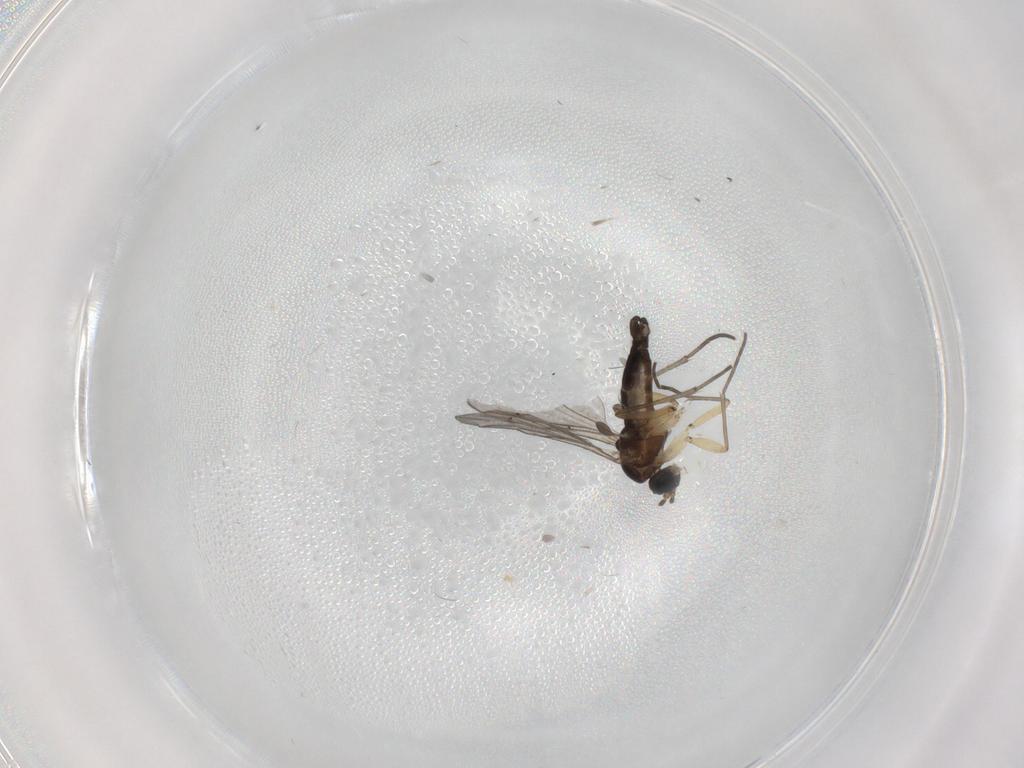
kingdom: Animalia
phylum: Arthropoda
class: Insecta
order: Diptera
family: Sciaridae
